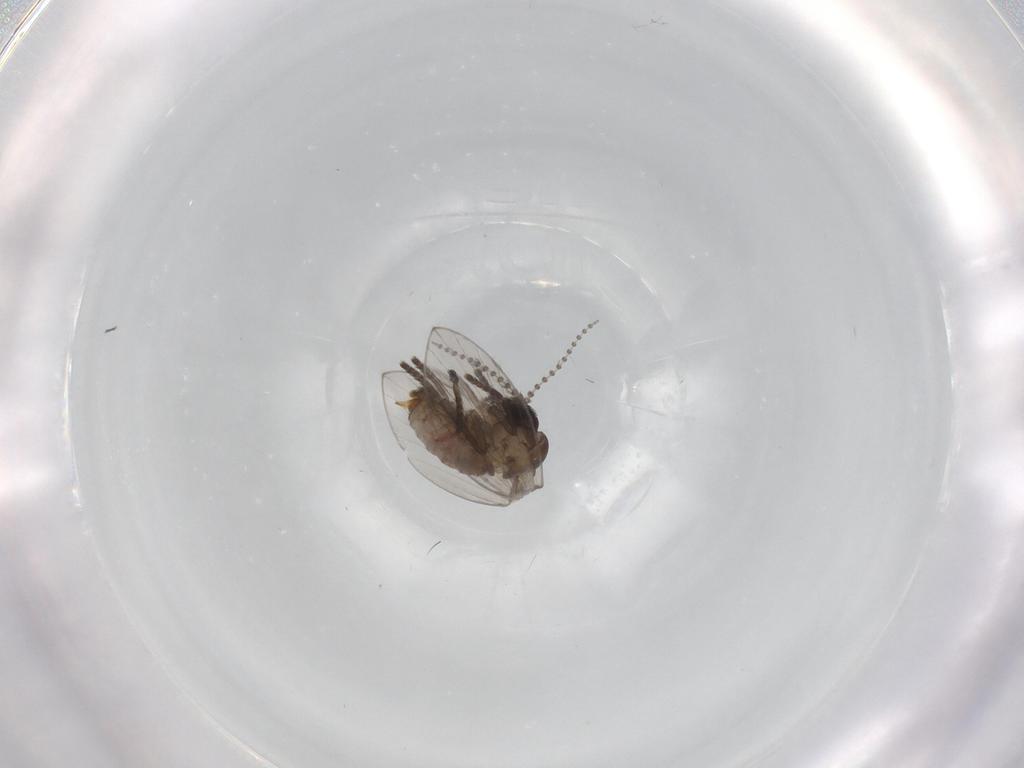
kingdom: Animalia
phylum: Arthropoda
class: Insecta
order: Diptera
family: Psychodidae
